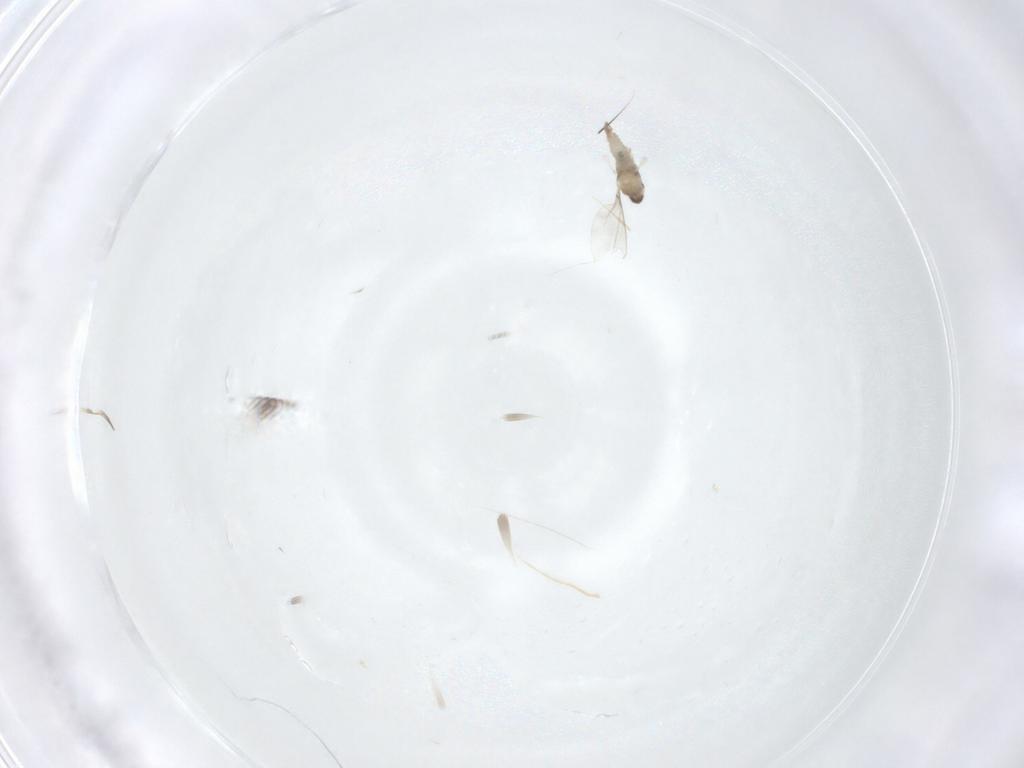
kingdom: Animalia
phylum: Arthropoda
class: Insecta
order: Diptera
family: Cecidomyiidae
